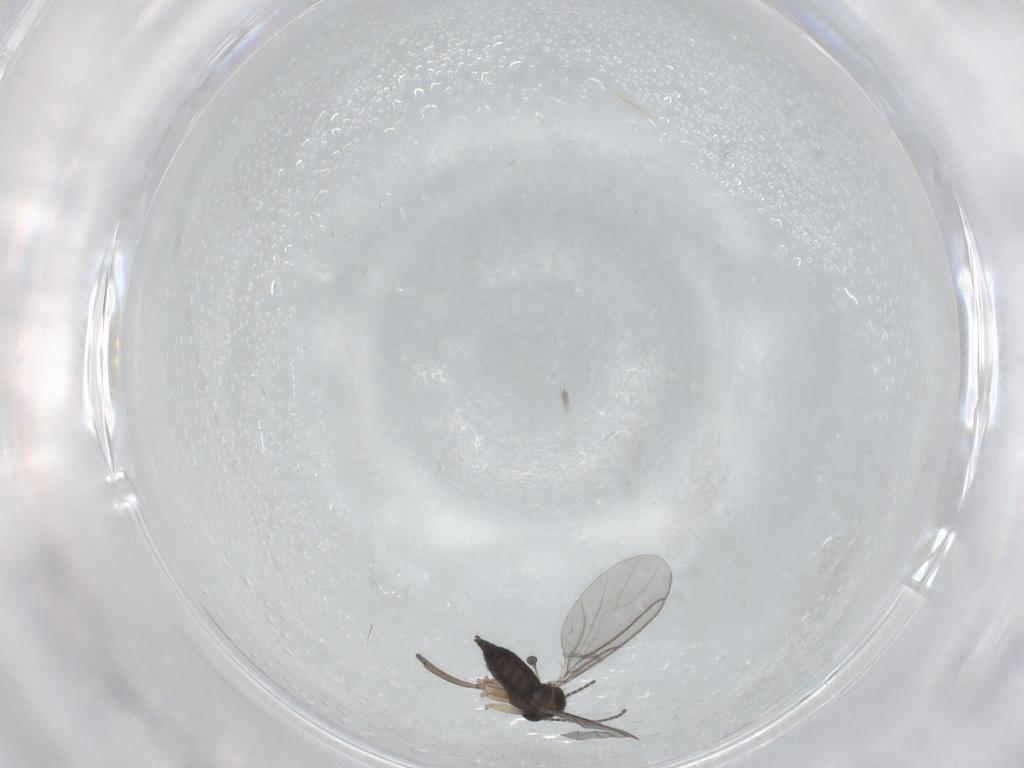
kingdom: Animalia
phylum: Arthropoda
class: Insecta
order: Diptera
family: Sciaridae
